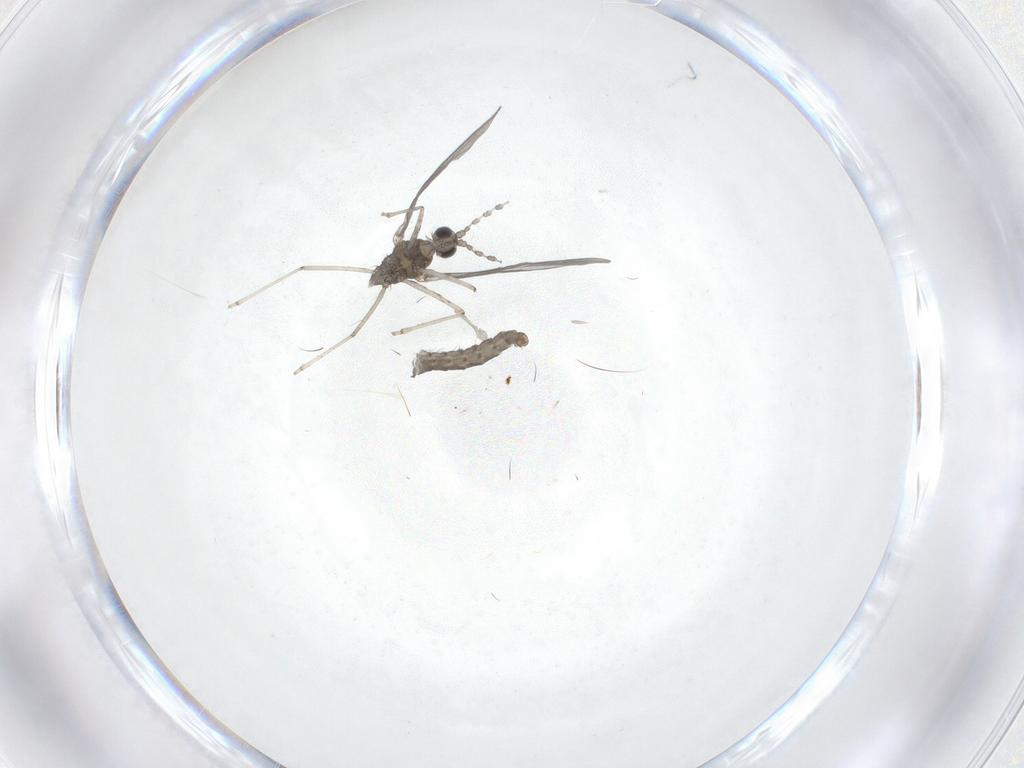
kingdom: Animalia
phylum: Arthropoda
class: Insecta
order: Diptera
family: Cecidomyiidae
